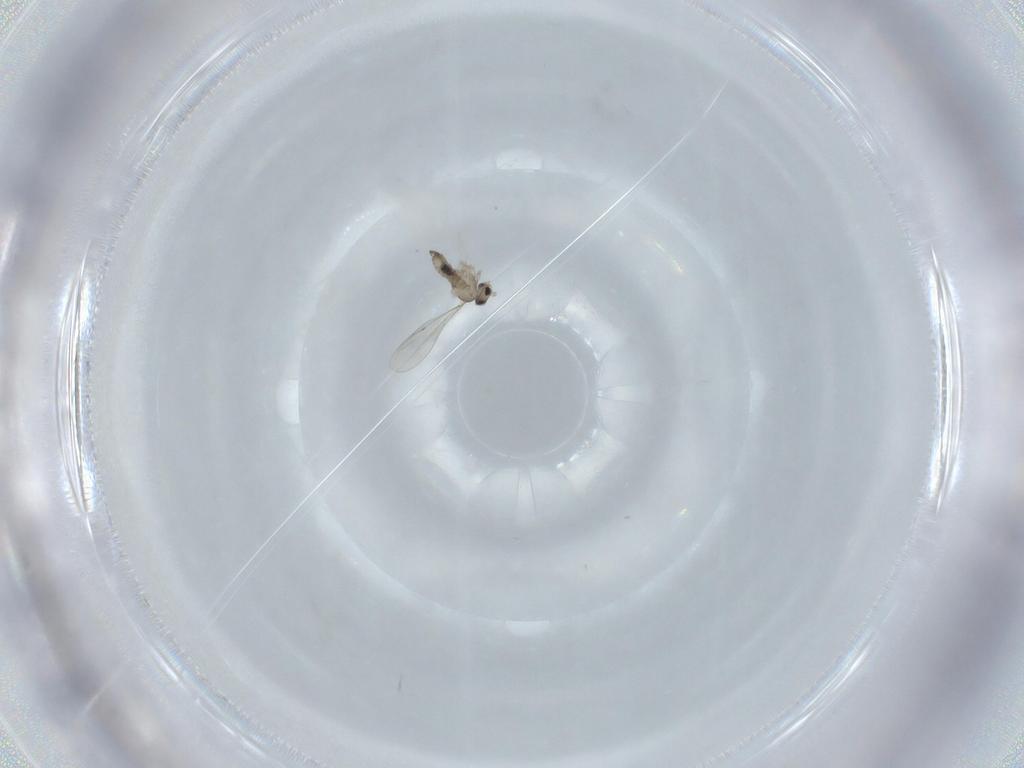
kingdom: Animalia
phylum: Arthropoda
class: Insecta
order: Diptera
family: Cecidomyiidae
